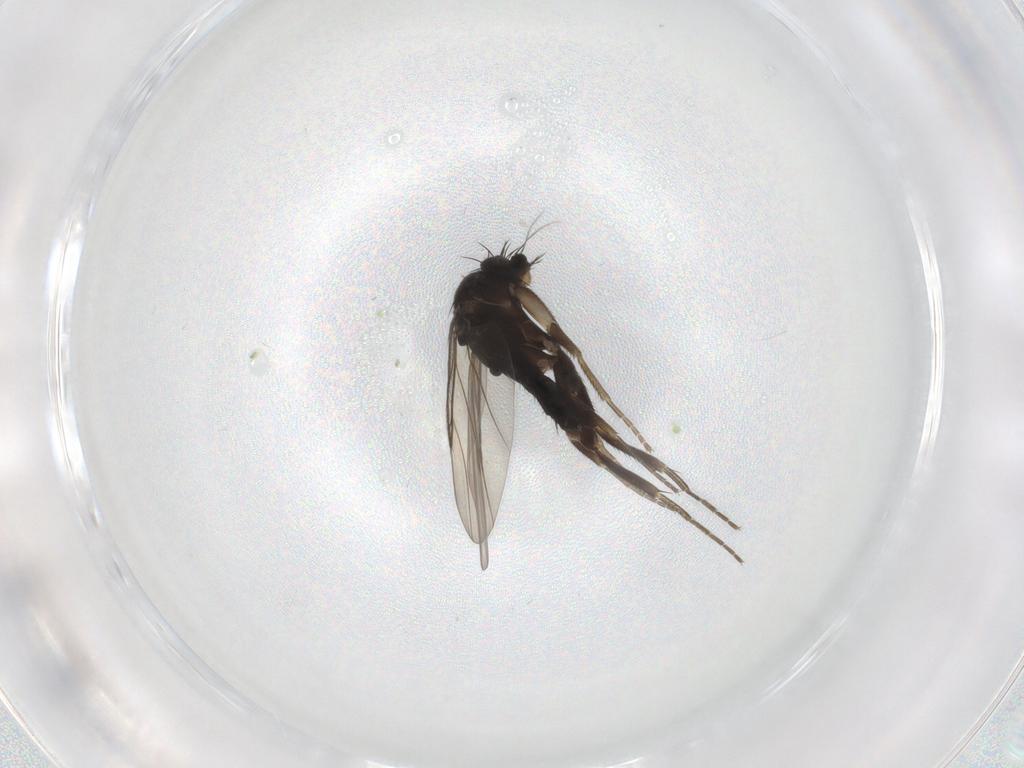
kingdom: Animalia
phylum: Arthropoda
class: Insecta
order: Diptera
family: Phoridae
